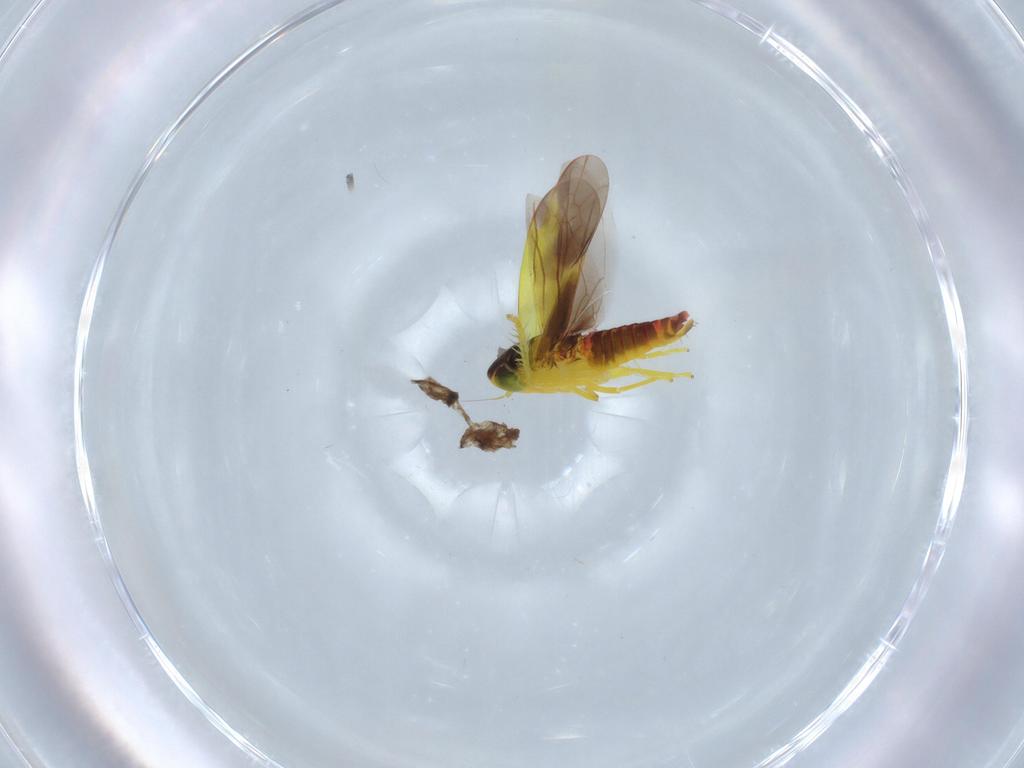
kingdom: Animalia
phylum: Arthropoda
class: Insecta
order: Hemiptera
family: Cicadellidae
